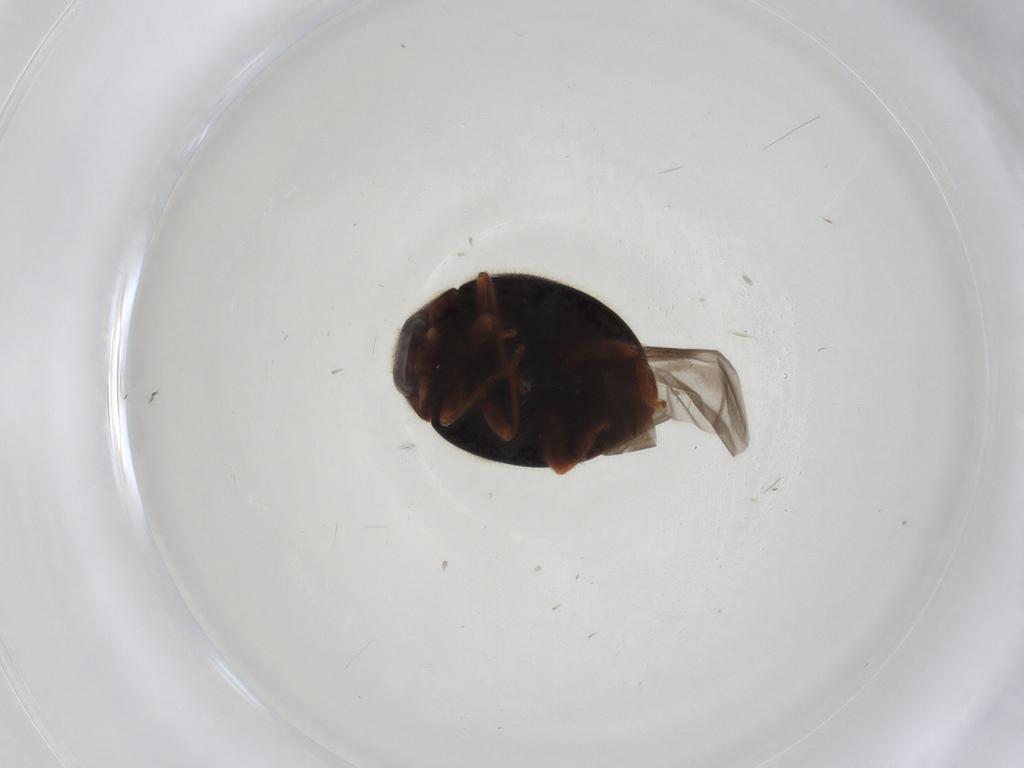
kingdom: Animalia
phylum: Arthropoda
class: Insecta
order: Coleoptera
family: Coccinellidae
